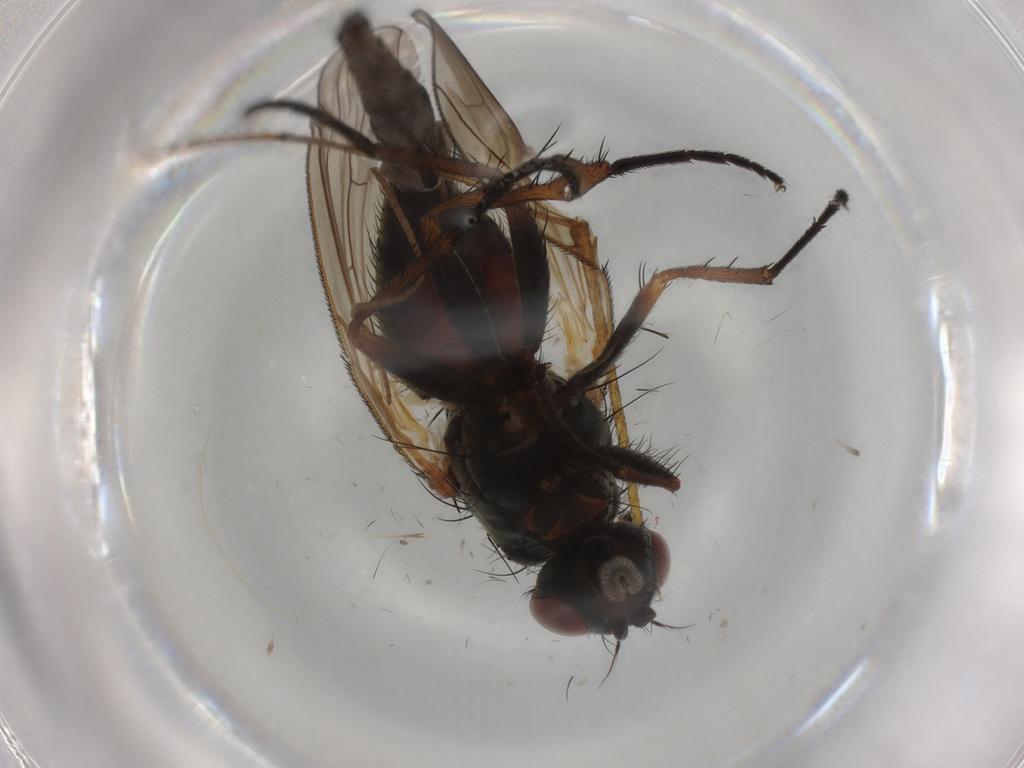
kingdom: Animalia
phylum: Arthropoda
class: Insecta
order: Diptera
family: Anthomyiidae
